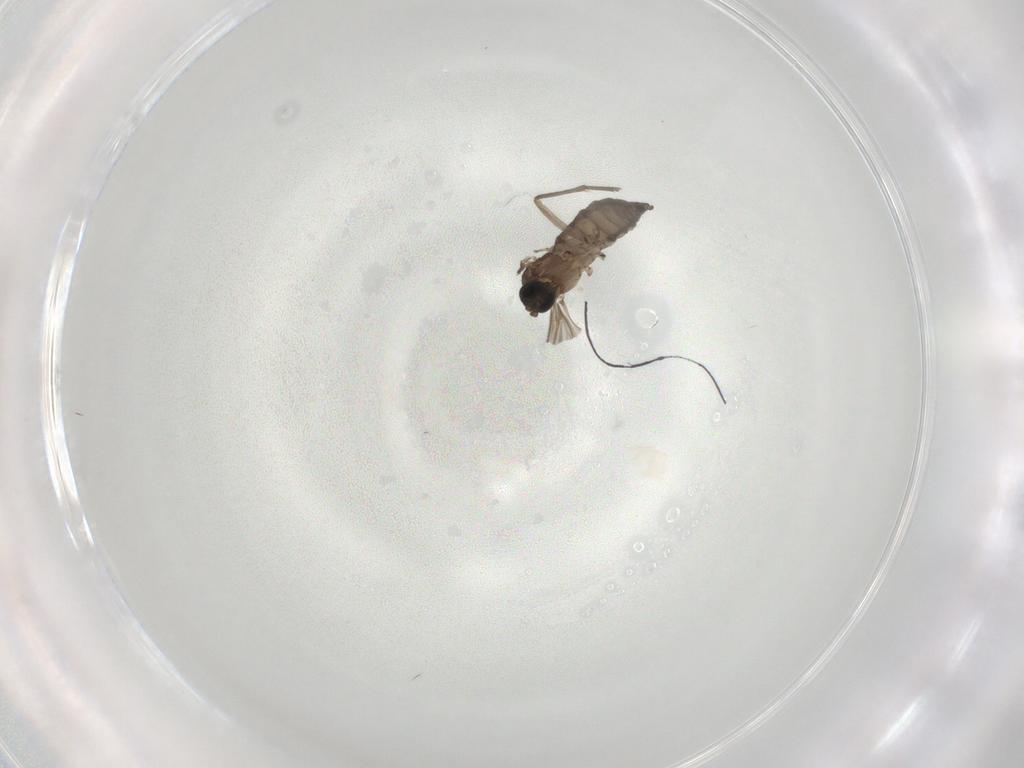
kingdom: Animalia
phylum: Arthropoda
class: Insecta
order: Diptera
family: Sciaridae
